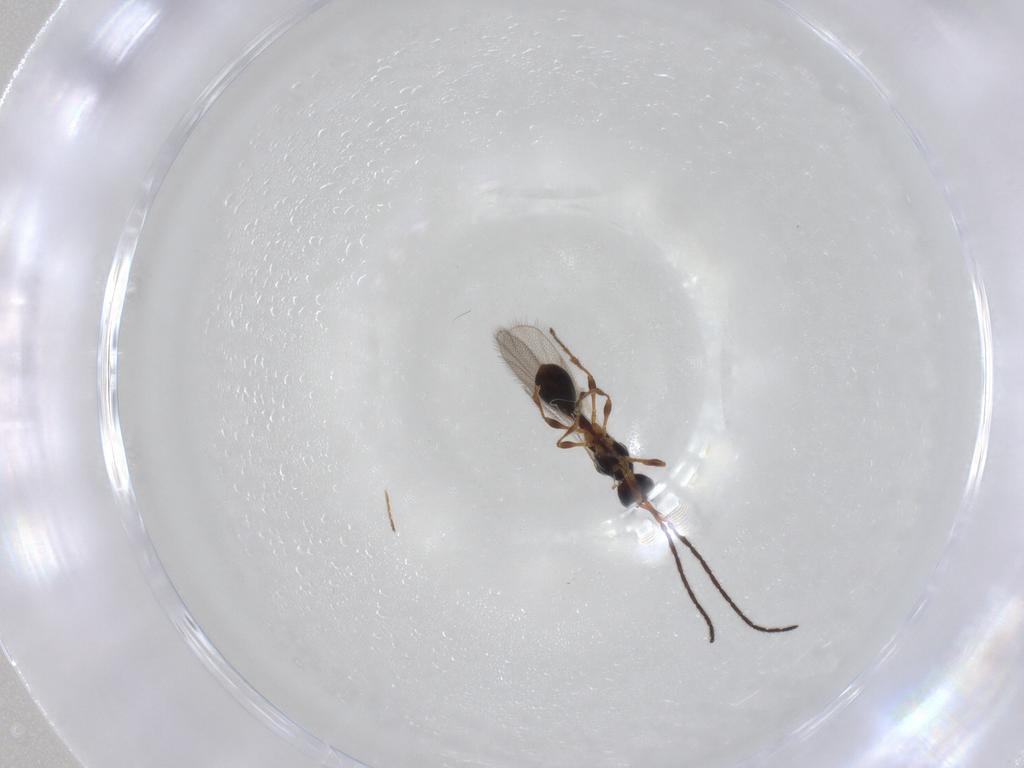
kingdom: Animalia
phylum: Arthropoda
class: Insecta
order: Hymenoptera
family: Diapriidae
